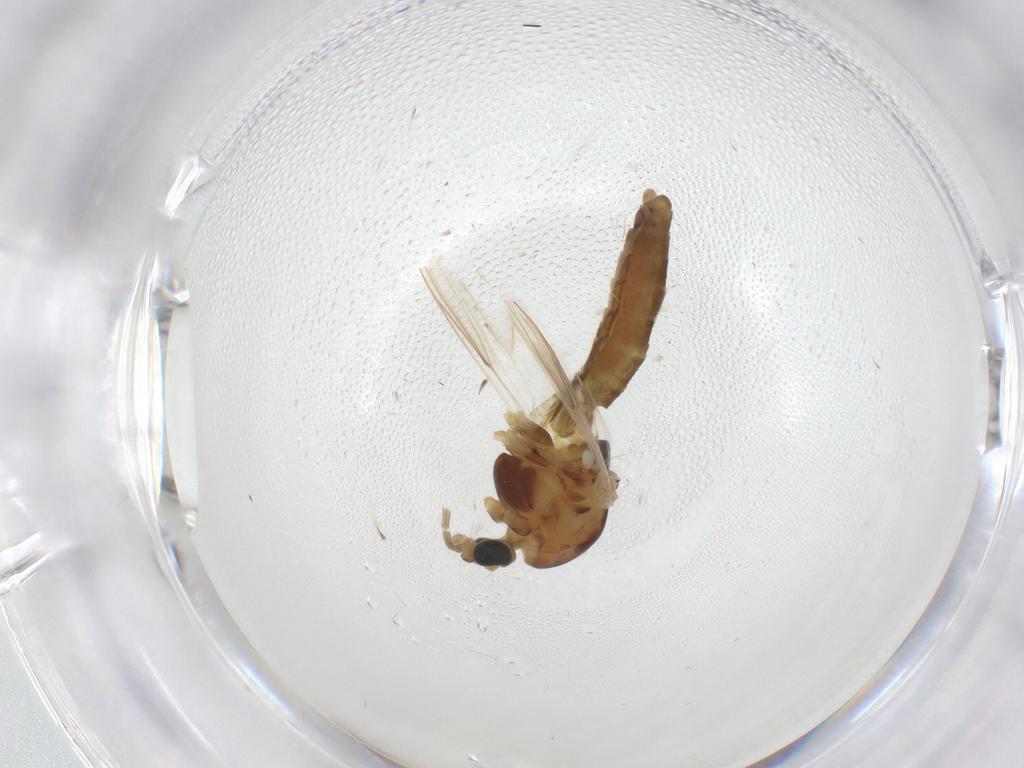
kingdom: Animalia
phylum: Arthropoda
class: Insecta
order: Diptera
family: Chironomidae
